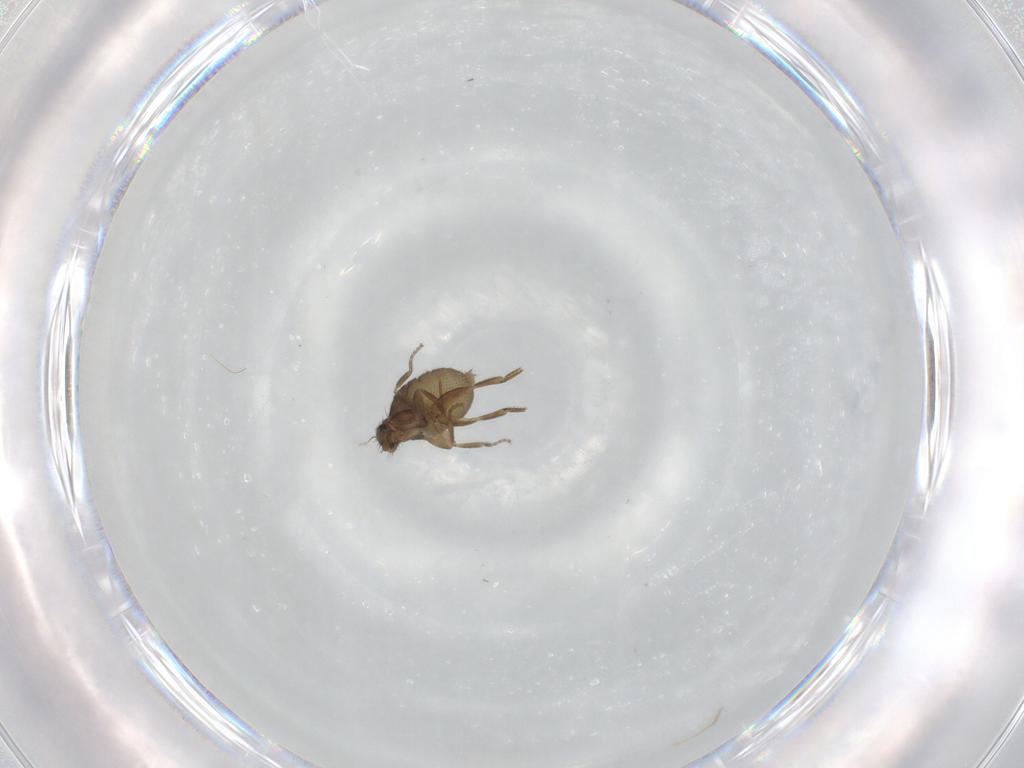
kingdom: Animalia
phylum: Arthropoda
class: Insecta
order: Diptera
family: Phoridae
